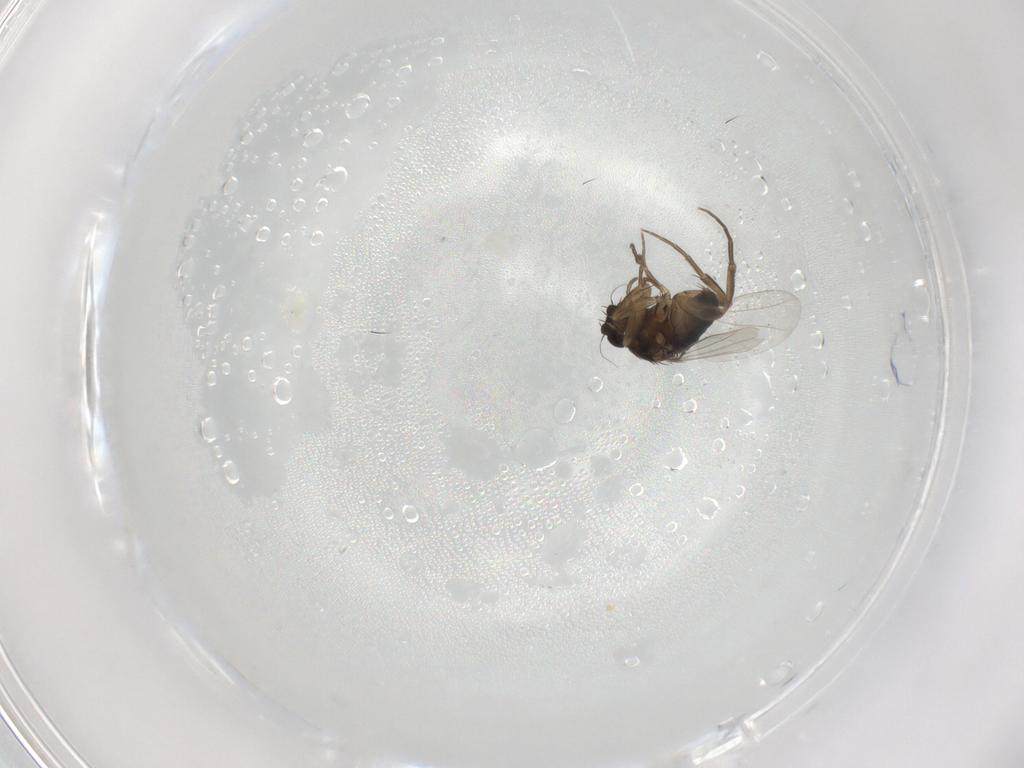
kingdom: Animalia
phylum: Arthropoda
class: Insecta
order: Diptera
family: Phoridae
